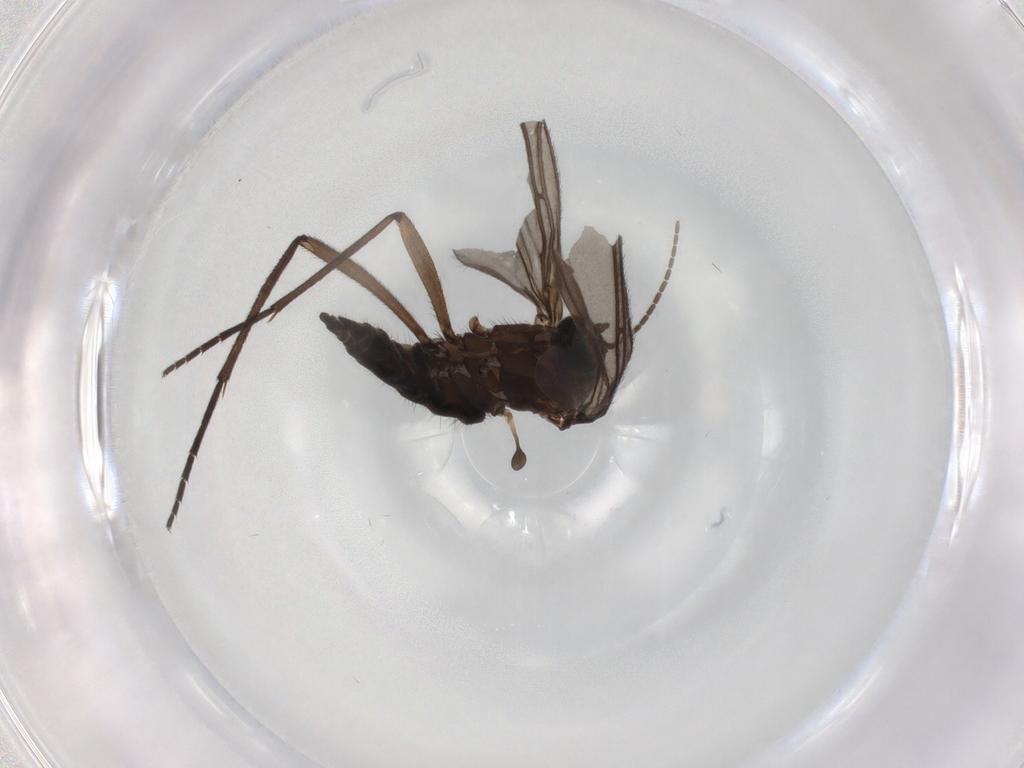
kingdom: Animalia
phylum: Arthropoda
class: Insecta
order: Diptera
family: Sciaridae
